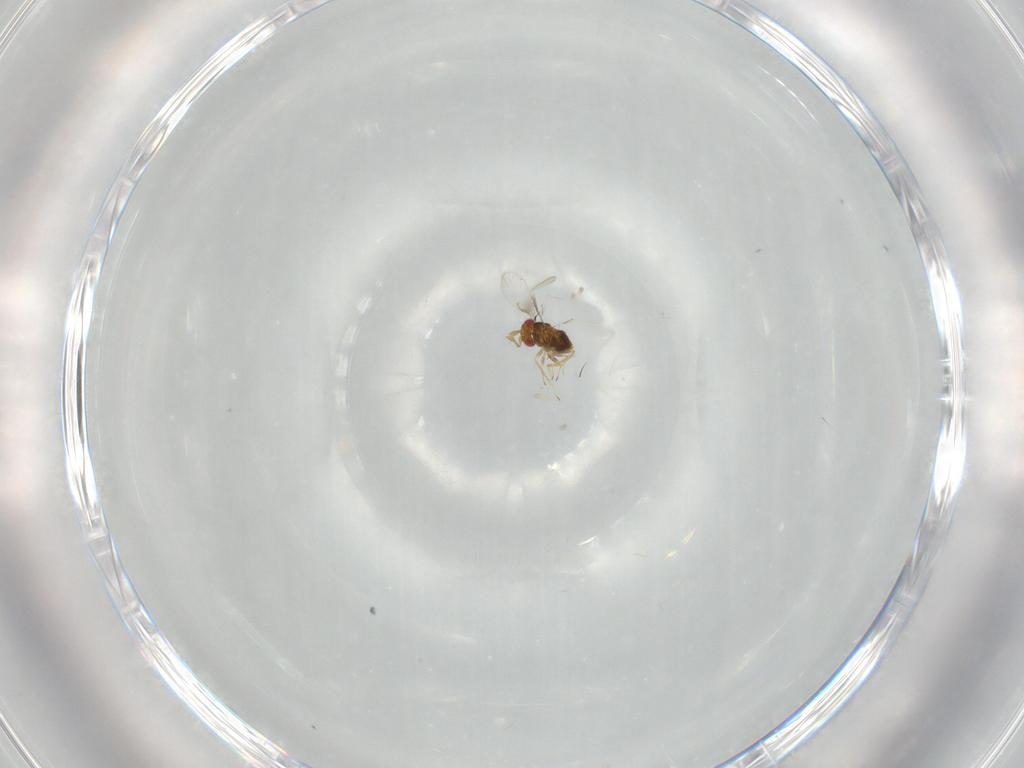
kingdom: Animalia
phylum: Arthropoda
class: Insecta
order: Hymenoptera
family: Trichogrammatidae
